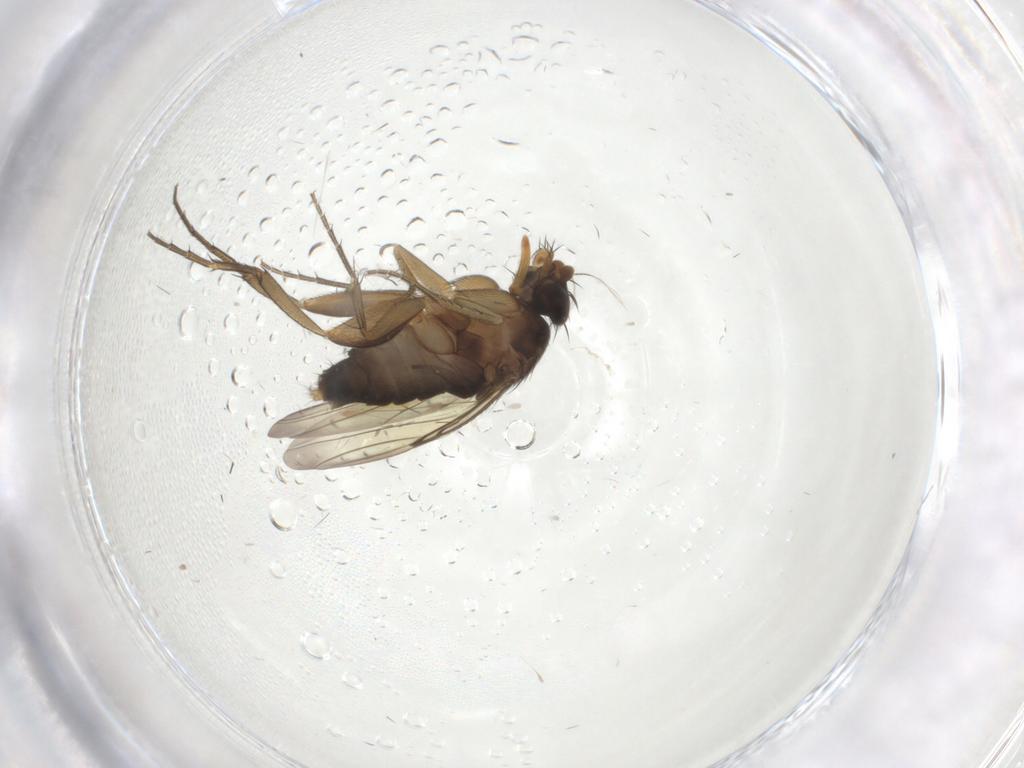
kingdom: Animalia
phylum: Arthropoda
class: Insecta
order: Diptera
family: Phoridae
